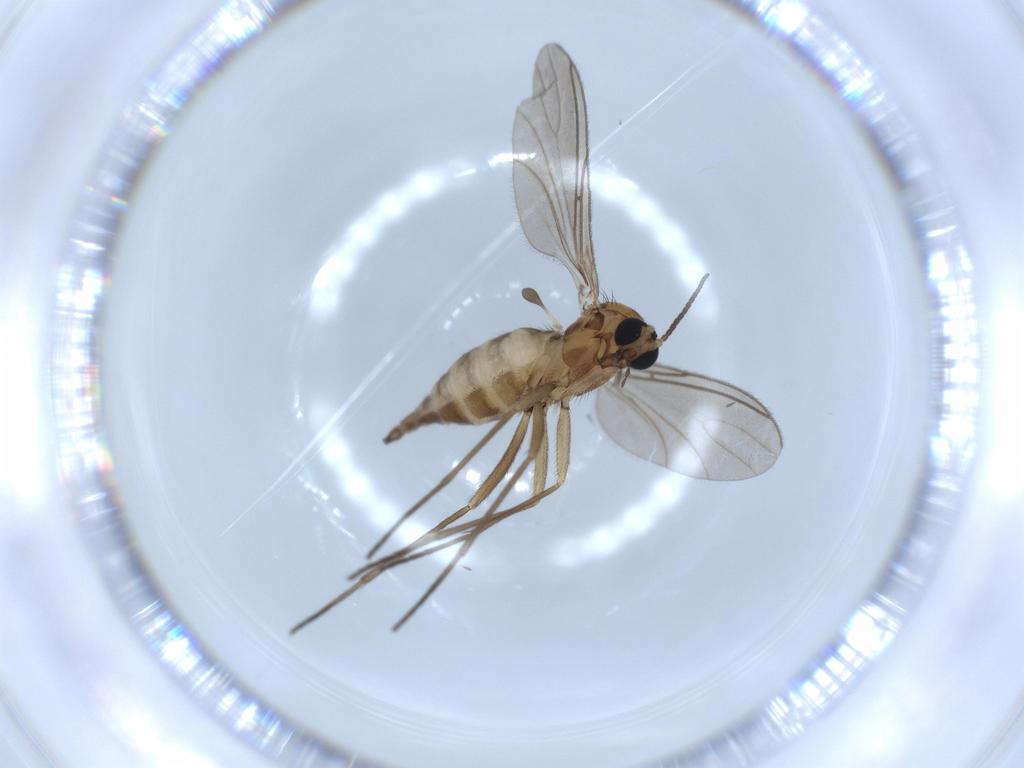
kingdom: Animalia
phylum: Arthropoda
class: Insecta
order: Diptera
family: Sciaridae
